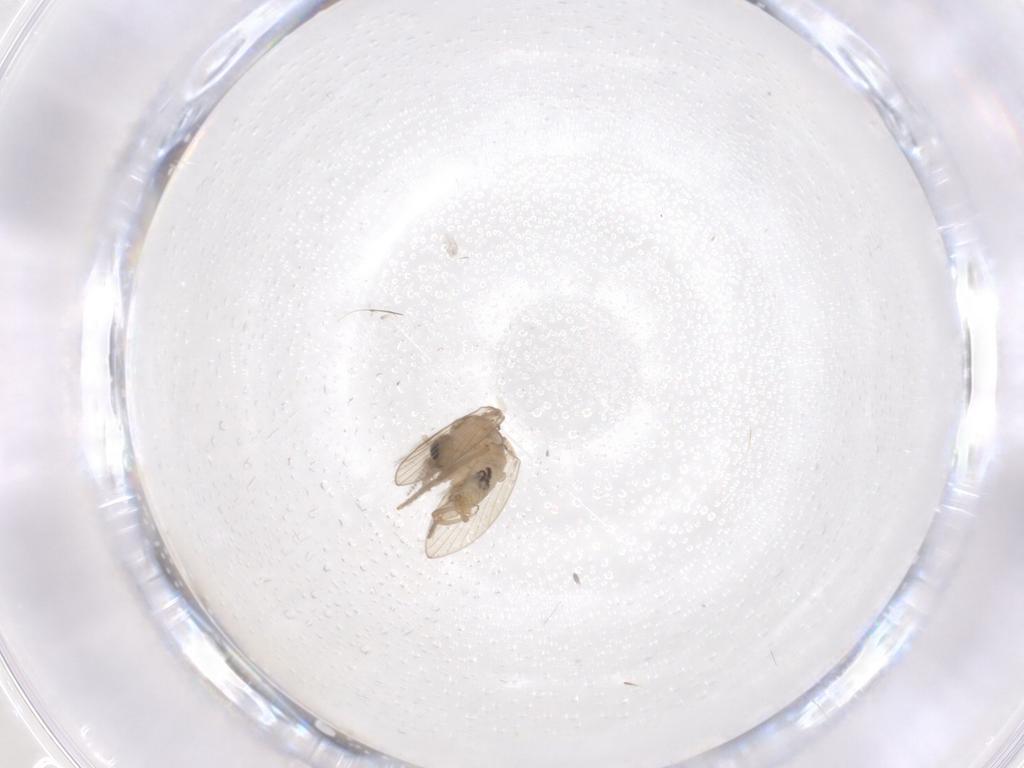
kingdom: Animalia
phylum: Arthropoda
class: Insecta
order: Diptera
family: Psychodidae
